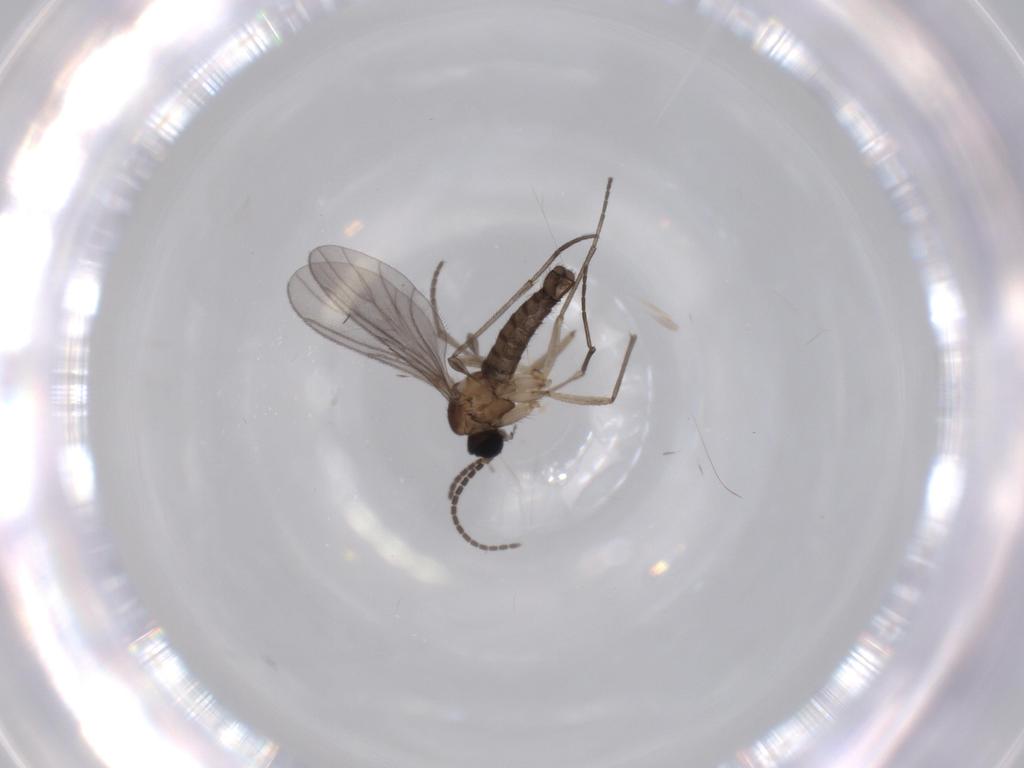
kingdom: Animalia
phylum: Arthropoda
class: Insecta
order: Diptera
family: Sciaridae
